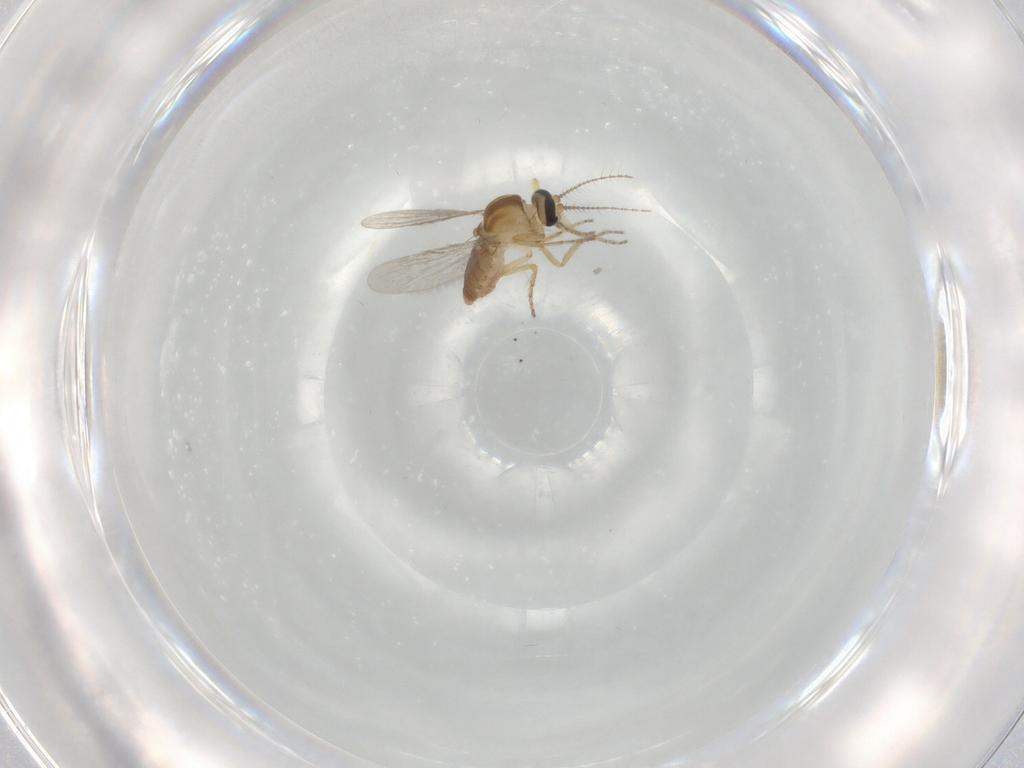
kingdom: Animalia
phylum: Arthropoda
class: Insecta
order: Diptera
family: Ceratopogonidae
